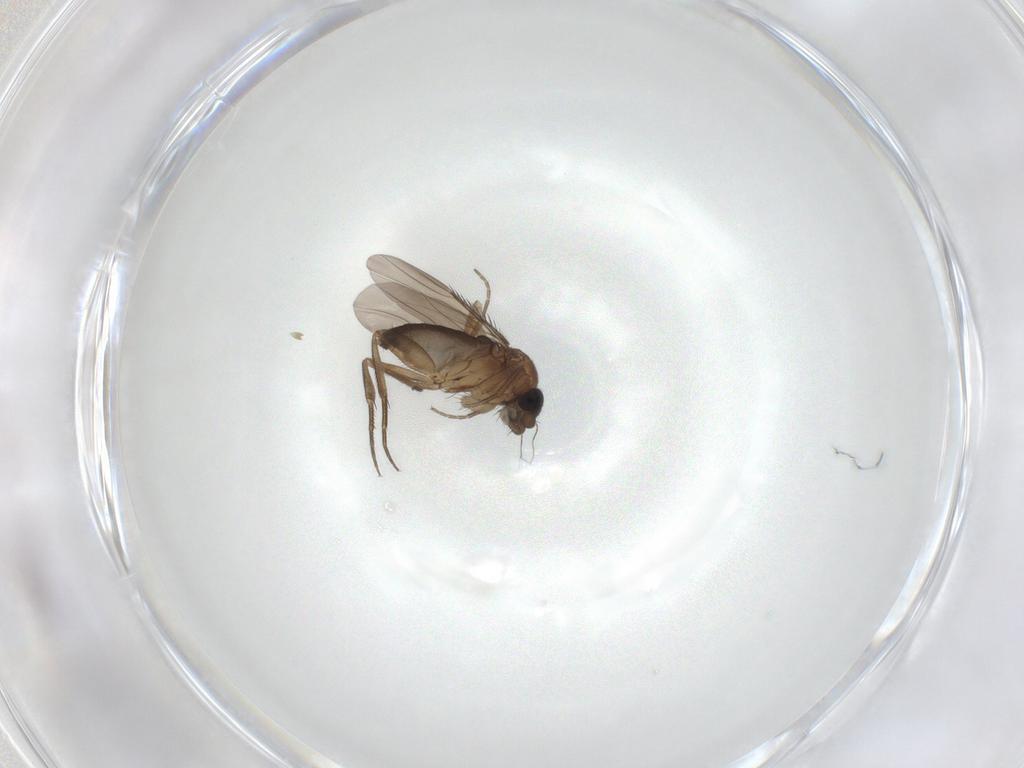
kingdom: Animalia
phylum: Arthropoda
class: Insecta
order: Diptera
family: Phoridae
